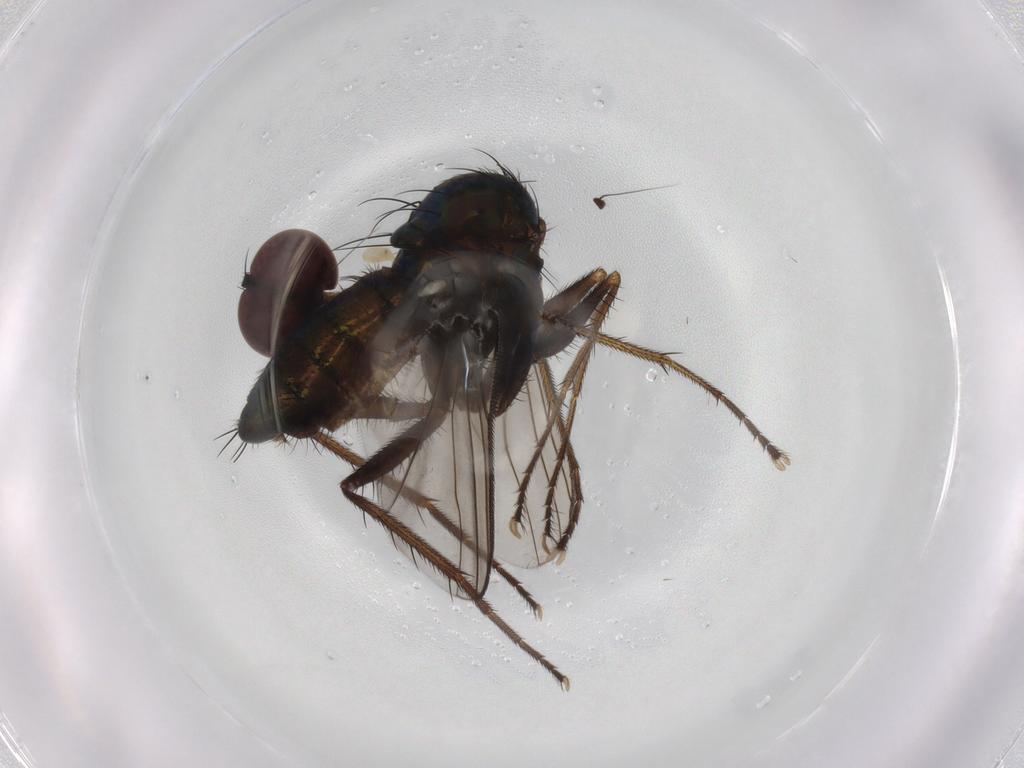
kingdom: Animalia
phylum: Arthropoda
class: Insecta
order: Diptera
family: Dolichopodidae
